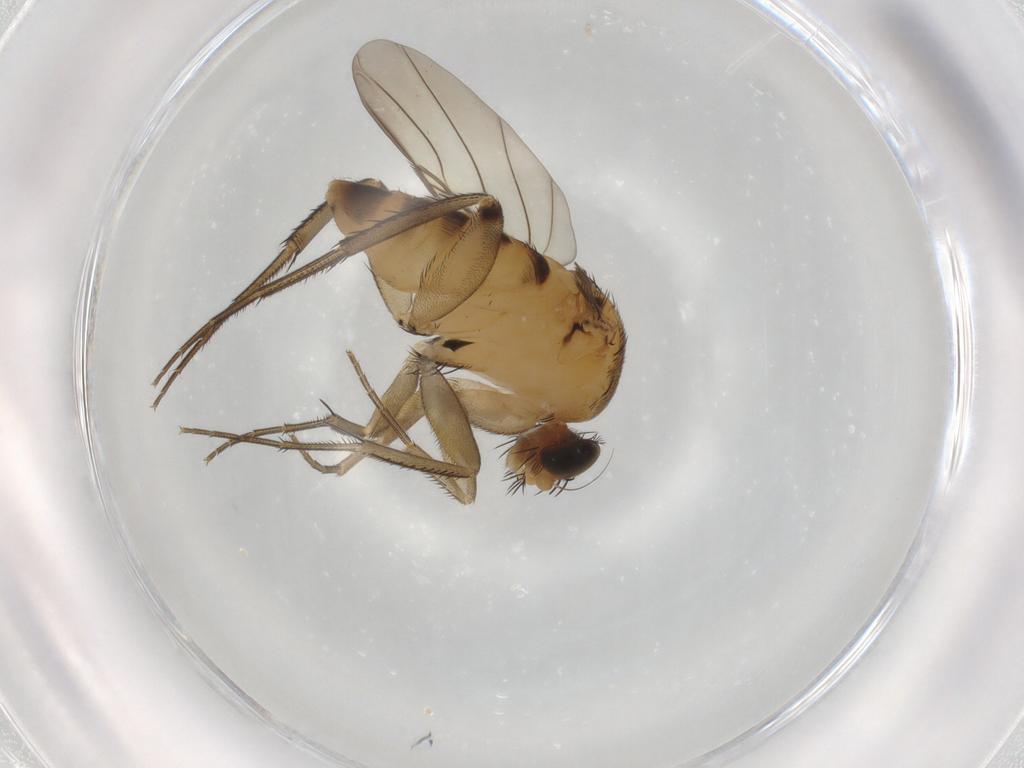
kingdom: Animalia
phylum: Arthropoda
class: Insecta
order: Diptera
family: Phoridae
